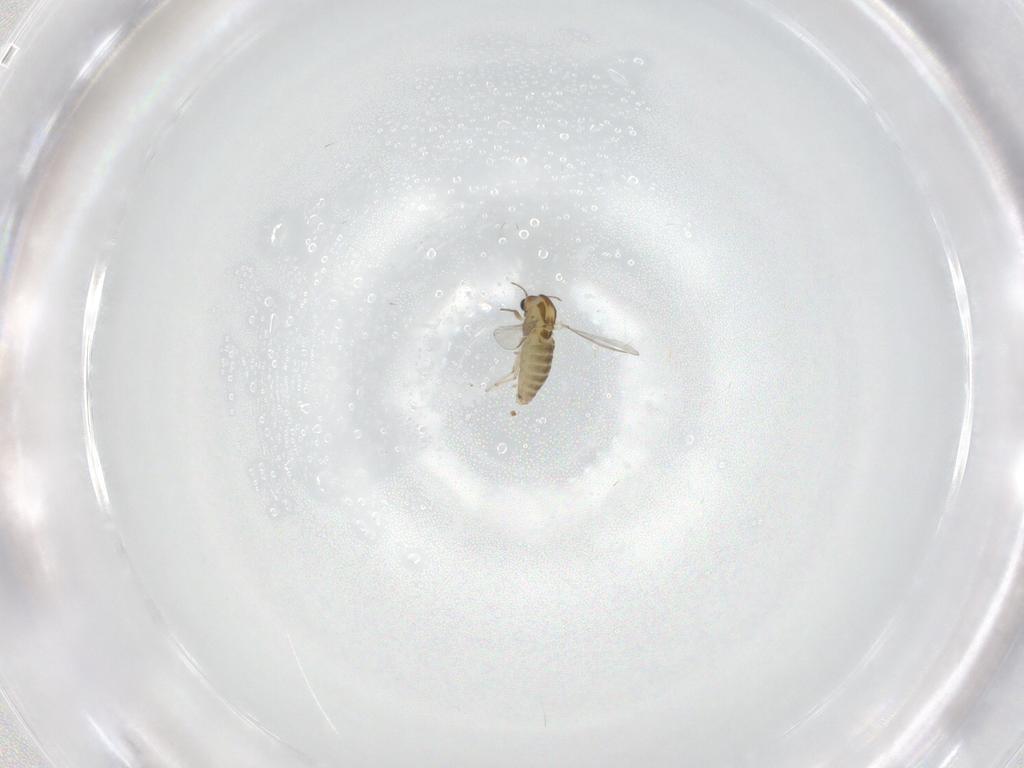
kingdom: Animalia
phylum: Arthropoda
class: Insecta
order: Diptera
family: Chironomidae
